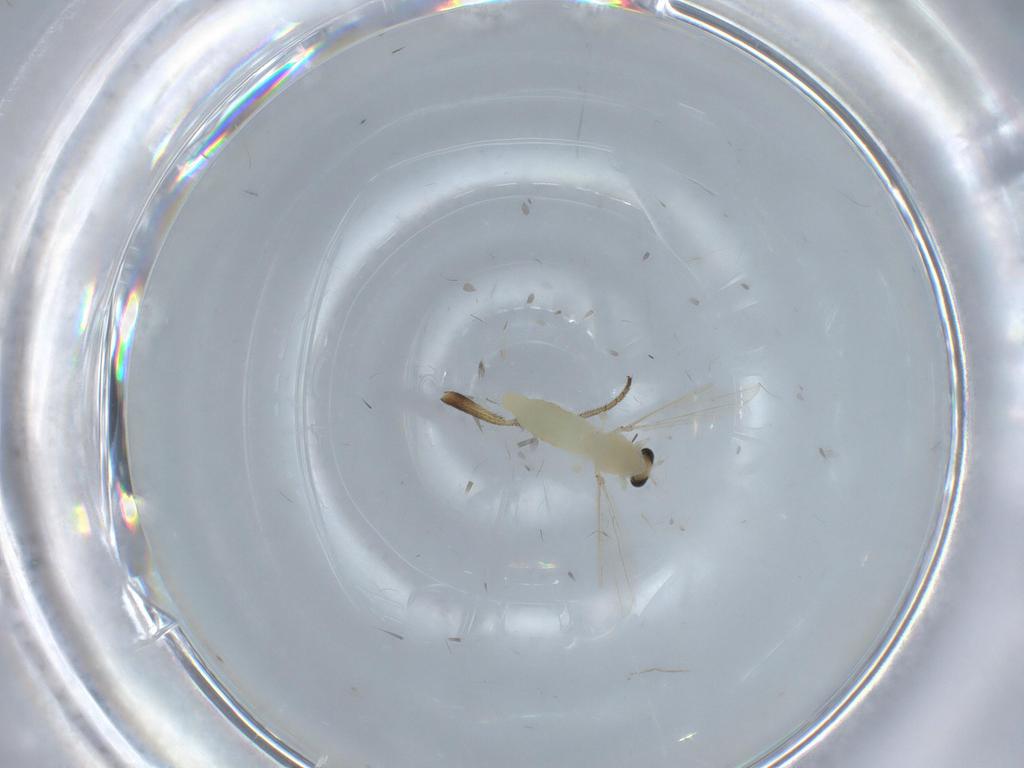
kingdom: Animalia
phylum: Arthropoda
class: Insecta
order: Diptera
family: Chironomidae
